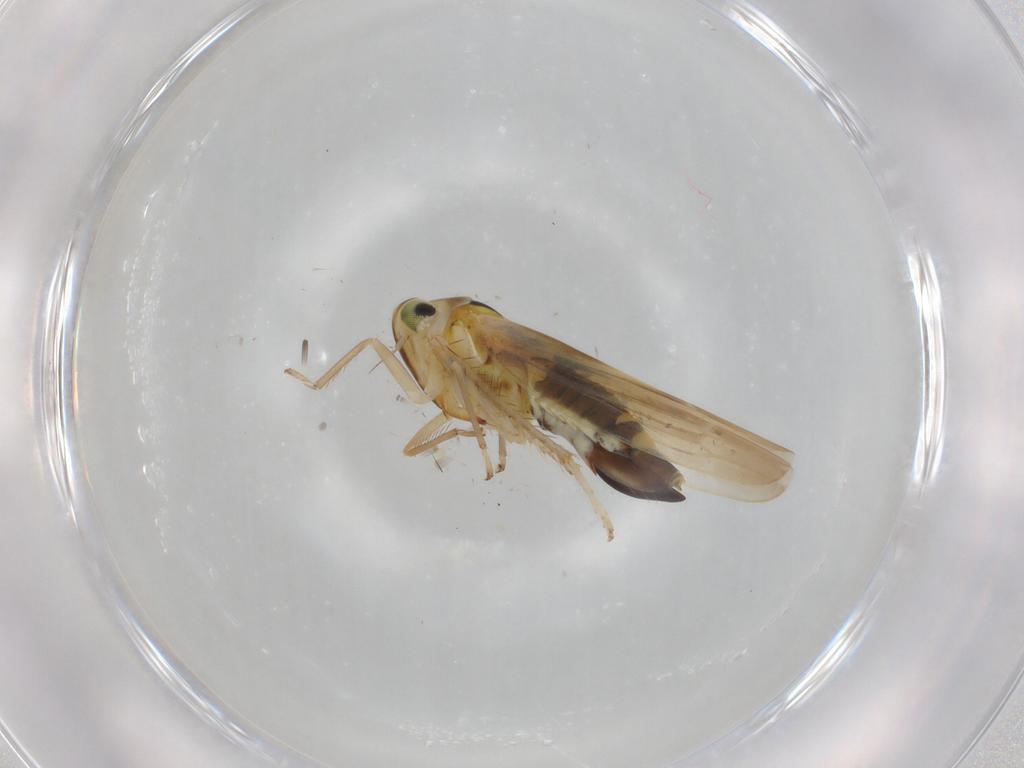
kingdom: Animalia
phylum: Arthropoda
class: Insecta
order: Hemiptera
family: Cicadellidae
